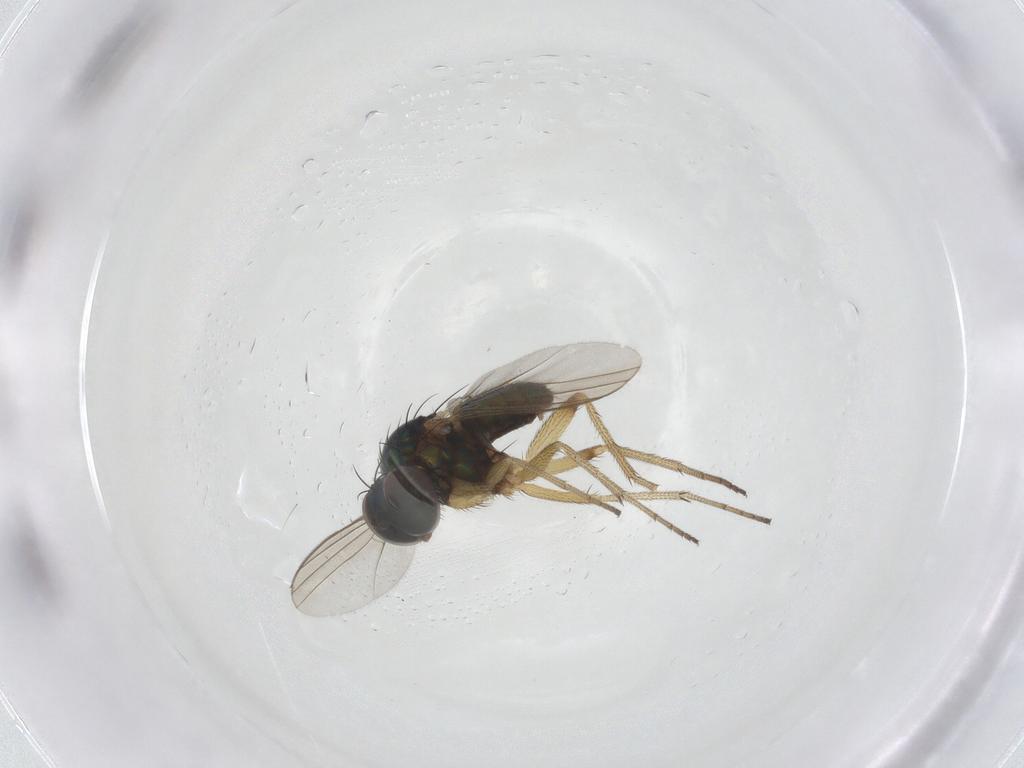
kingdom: Animalia
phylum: Arthropoda
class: Insecta
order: Diptera
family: Dolichopodidae
